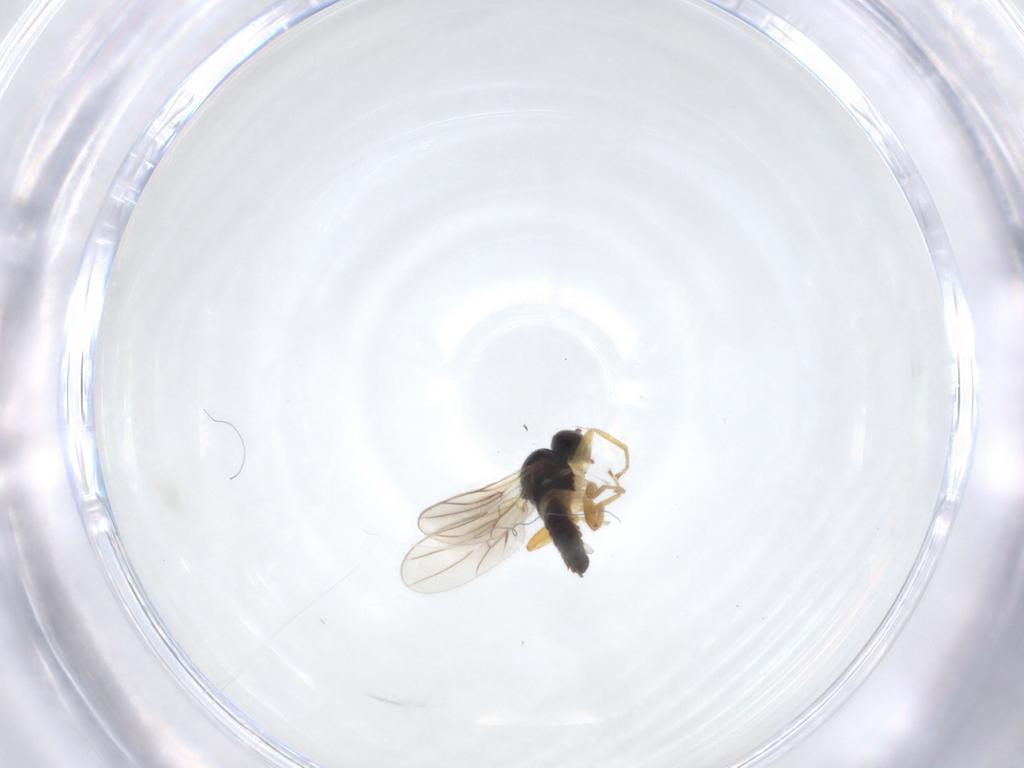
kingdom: Animalia
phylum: Arthropoda
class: Insecta
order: Diptera
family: Hybotidae
